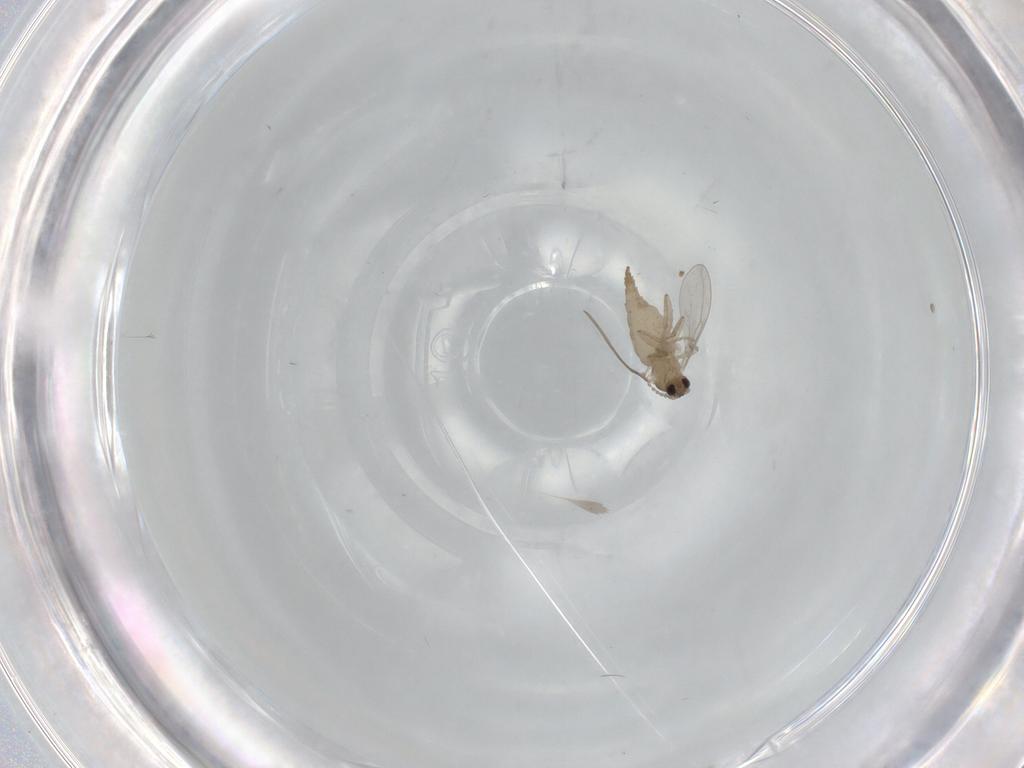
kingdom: Animalia
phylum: Arthropoda
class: Insecta
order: Diptera
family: Cecidomyiidae
